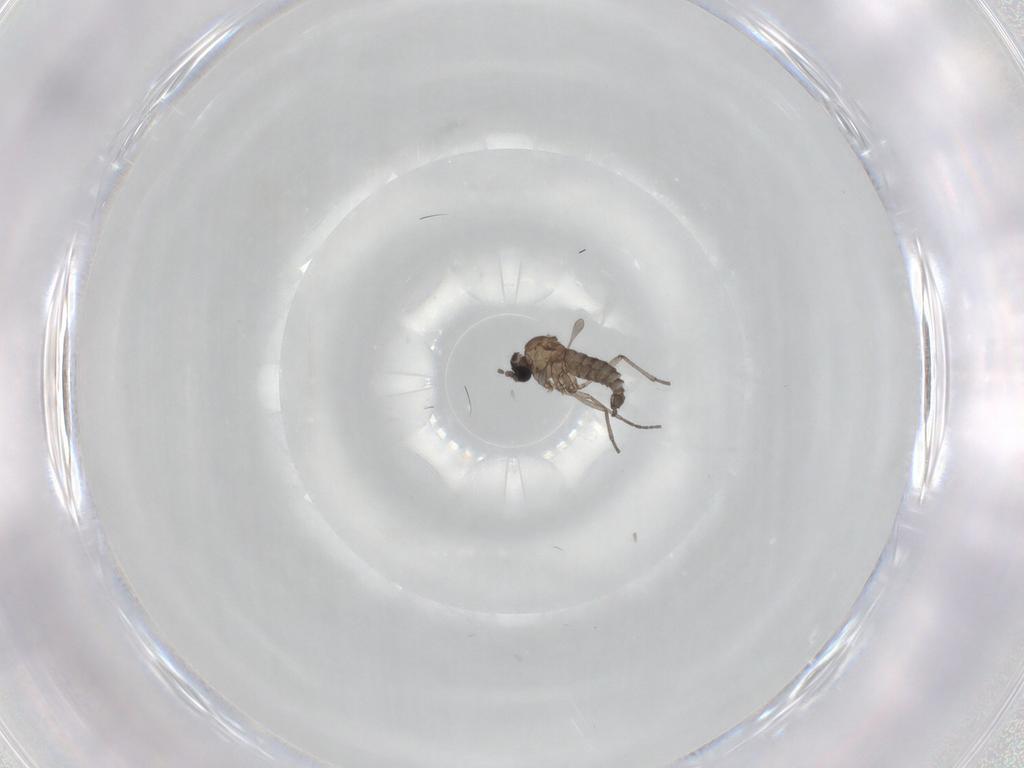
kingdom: Animalia
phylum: Arthropoda
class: Insecta
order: Diptera
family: Sciaridae
